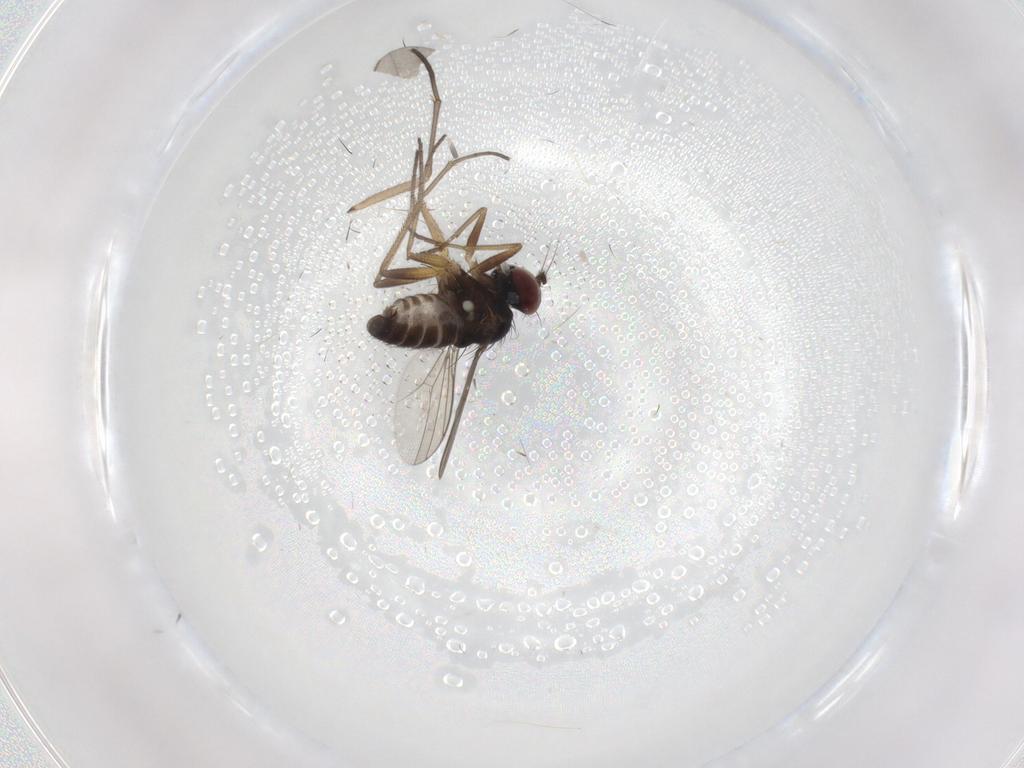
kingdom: Animalia
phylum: Arthropoda
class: Insecta
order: Diptera
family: Dolichopodidae
